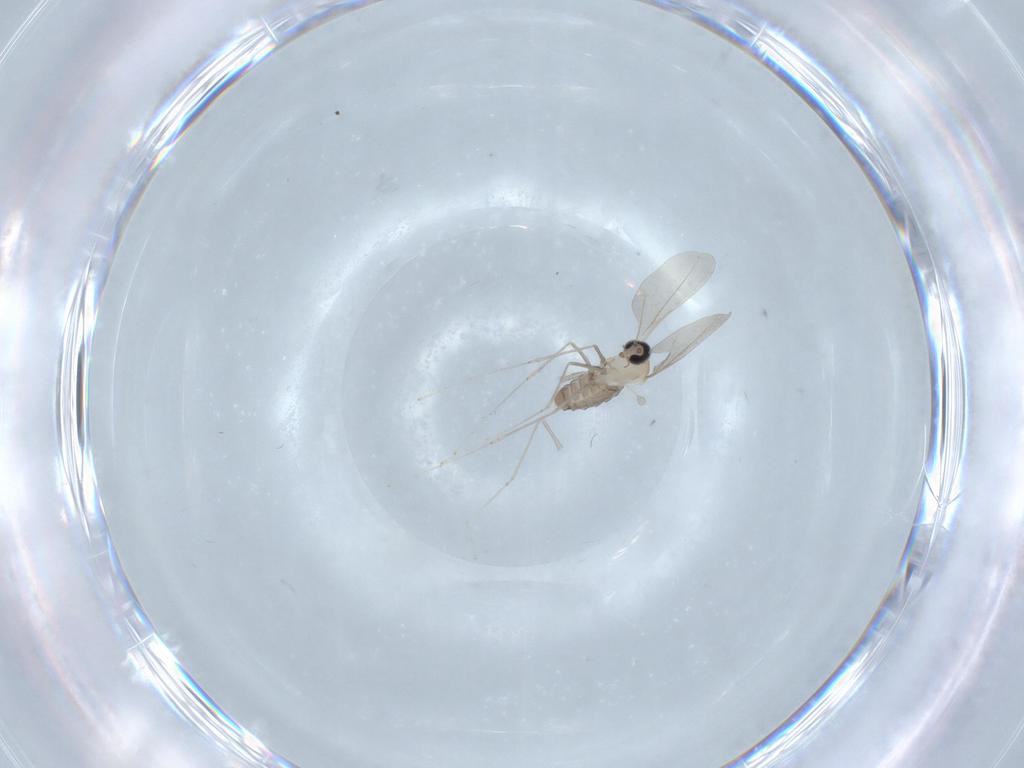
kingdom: Animalia
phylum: Arthropoda
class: Insecta
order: Diptera
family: Cecidomyiidae
